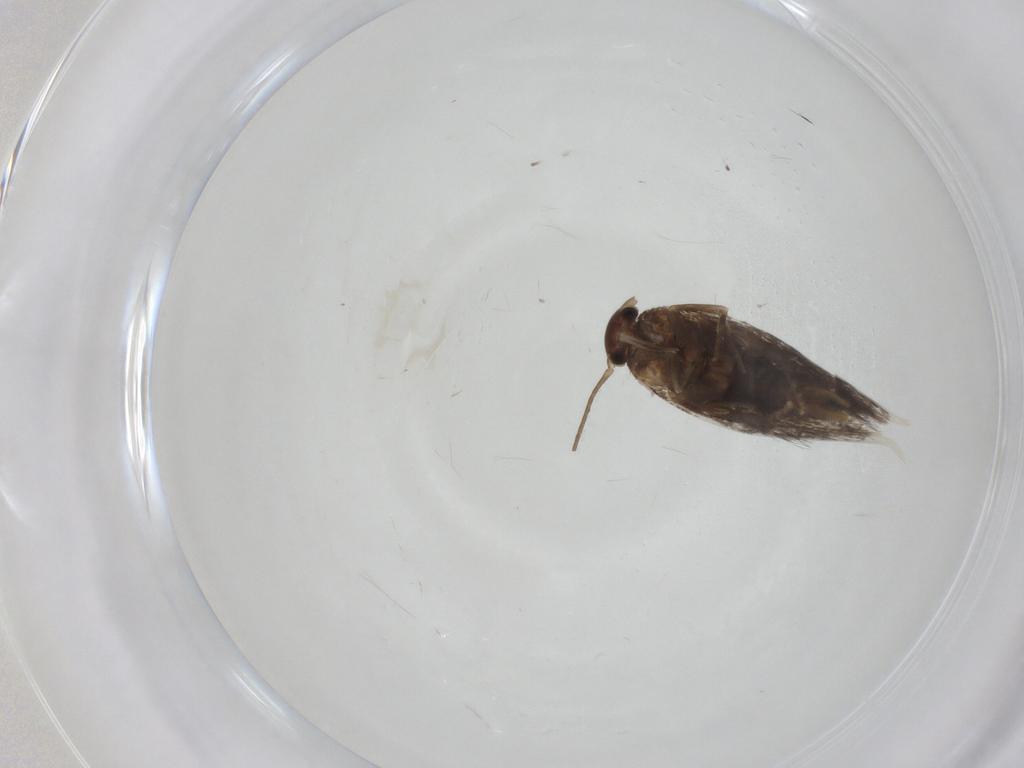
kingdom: Animalia
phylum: Arthropoda
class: Insecta
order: Lepidoptera
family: Elachistidae
